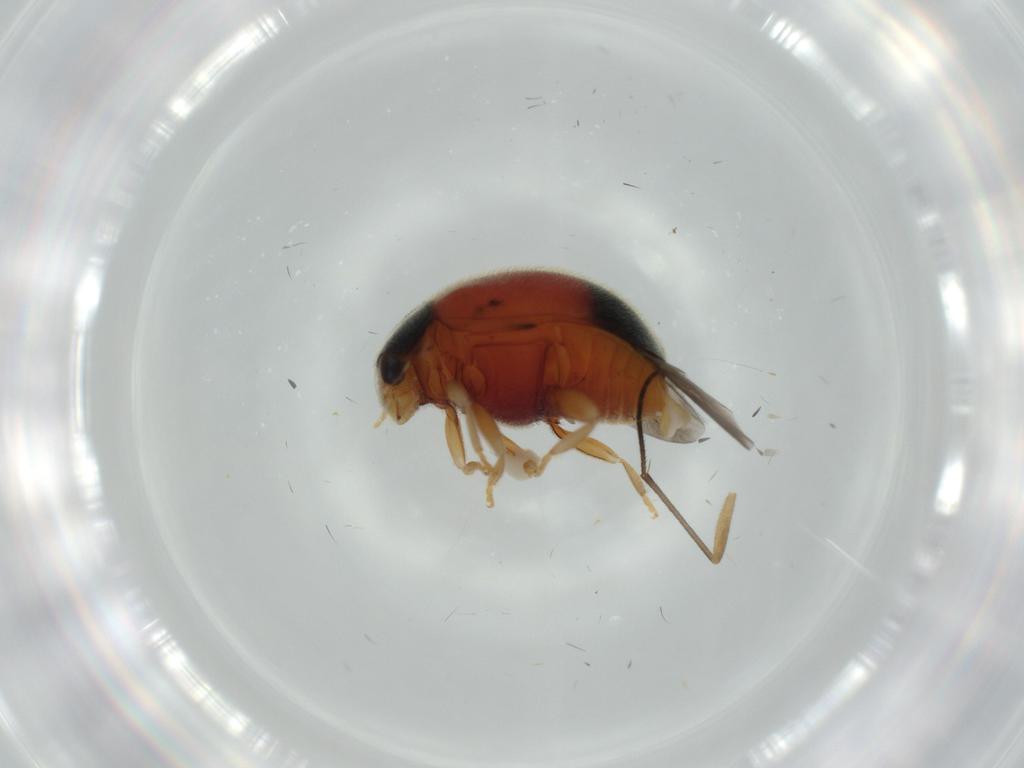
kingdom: Animalia
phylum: Arthropoda
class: Insecta
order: Coleoptera
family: Coccinellidae
